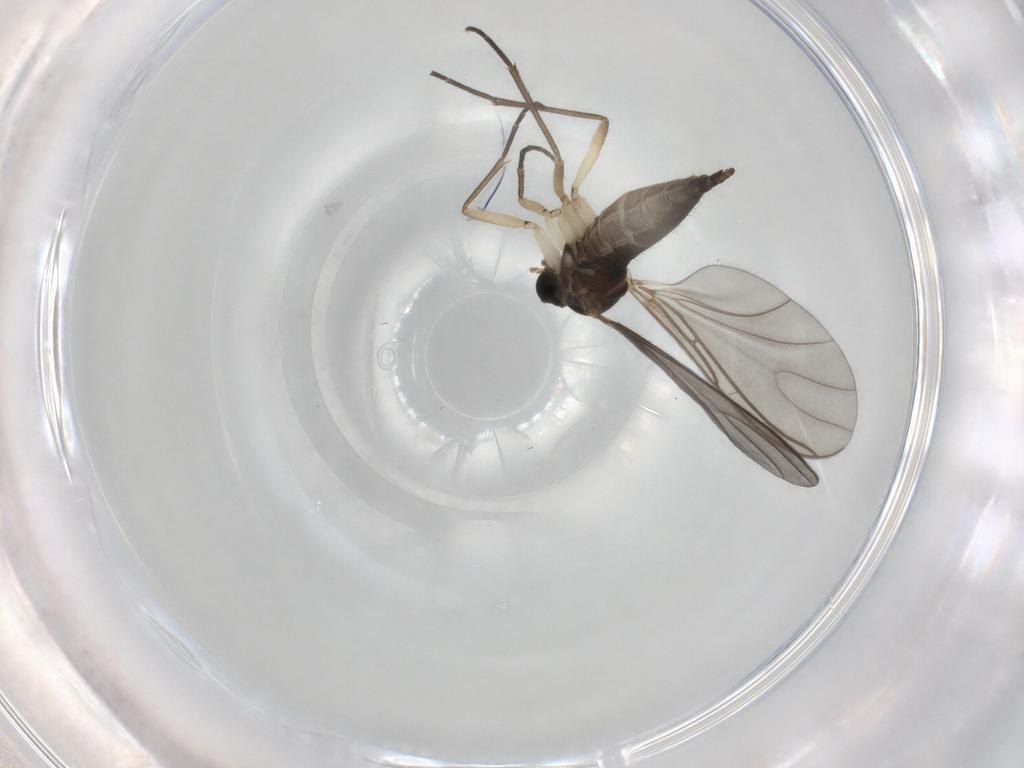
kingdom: Animalia
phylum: Arthropoda
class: Insecta
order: Diptera
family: Sciaridae
